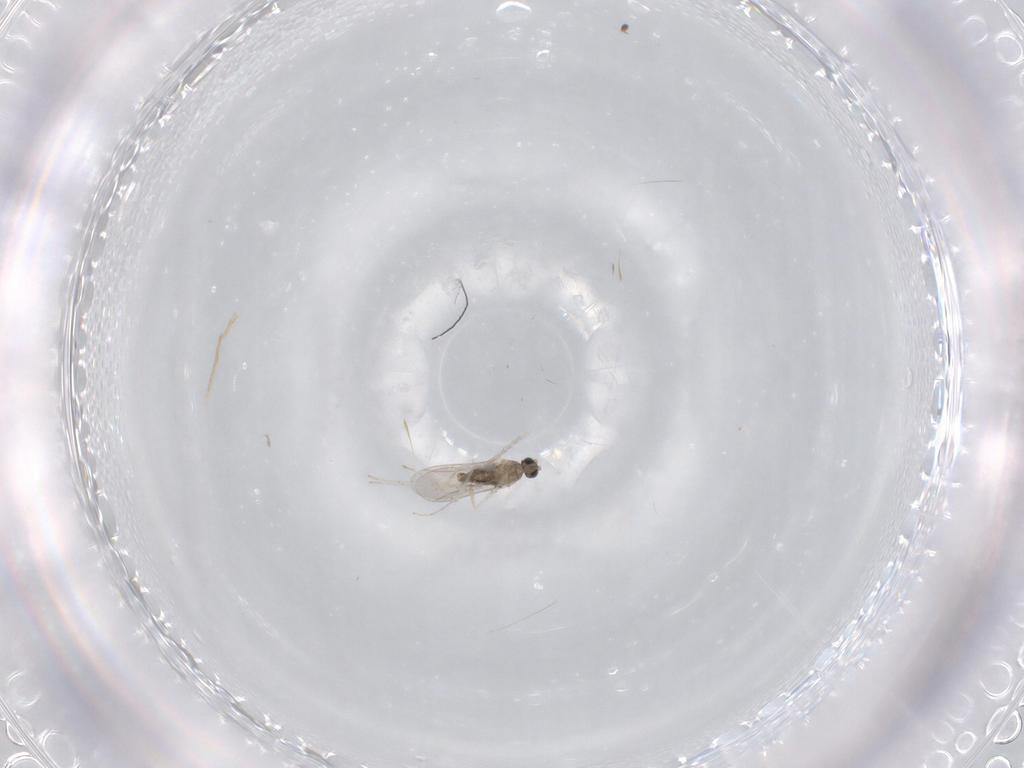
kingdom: Animalia
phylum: Arthropoda
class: Insecta
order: Diptera
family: Cecidomyiidae
